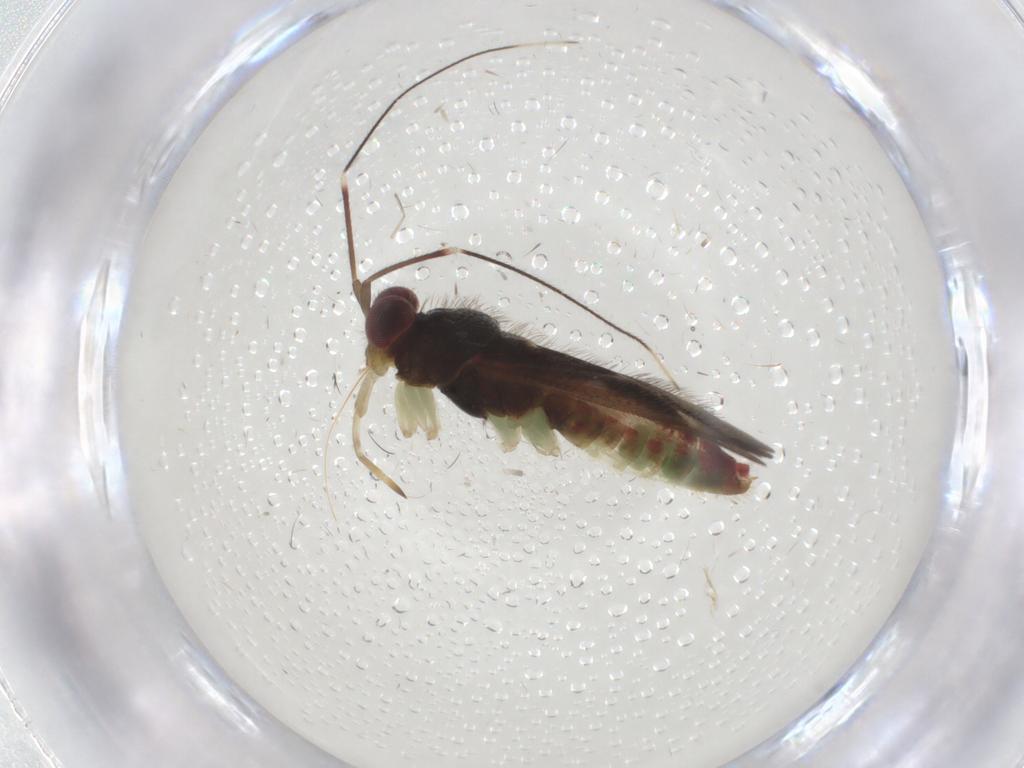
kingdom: Animalia
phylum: Arthropoda
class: Insecta
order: Hemiptera
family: Miridae
